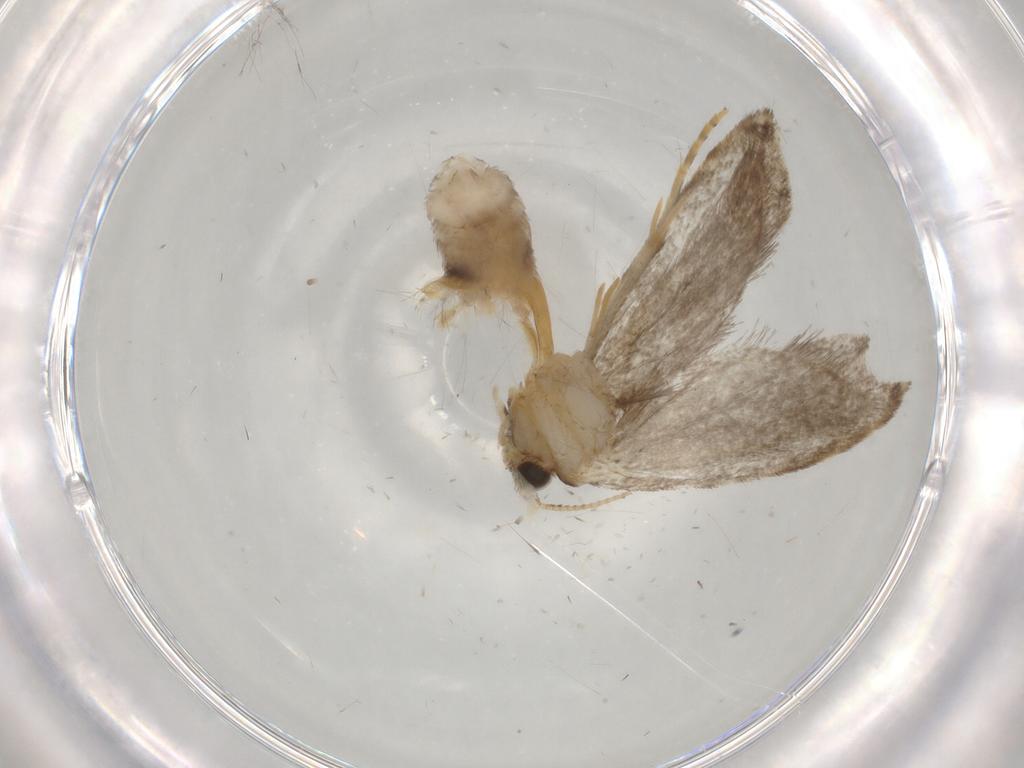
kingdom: Animalia
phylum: Arthropoda
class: Insecta
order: Lepidoptera
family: Tineidae
